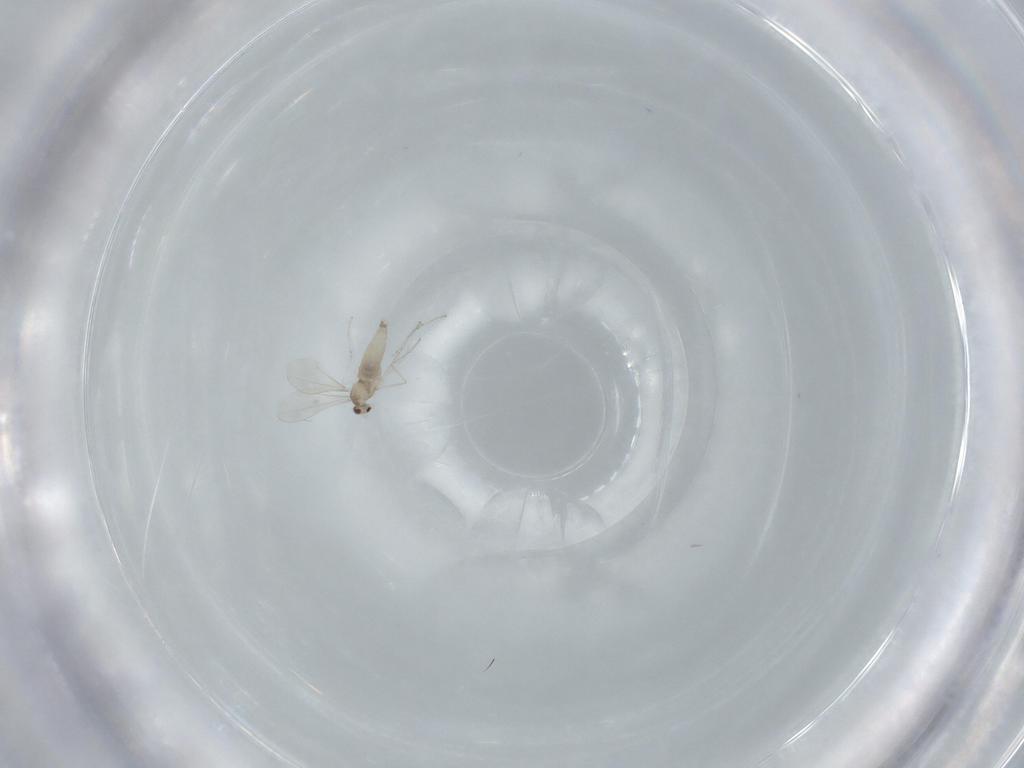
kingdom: Animalia
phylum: Arthropoda
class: Insecta
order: Diptera
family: Cecidomyiidae
